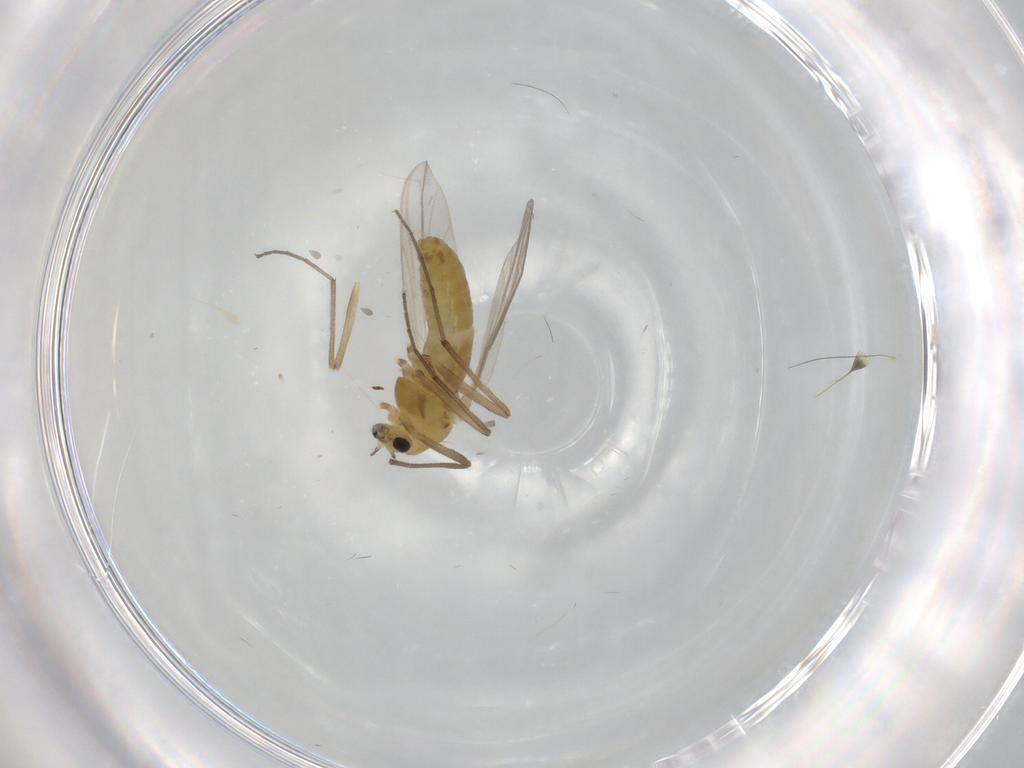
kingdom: Animalia
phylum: Arthropoda
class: Insecta
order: Diptera
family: Chironomidae
